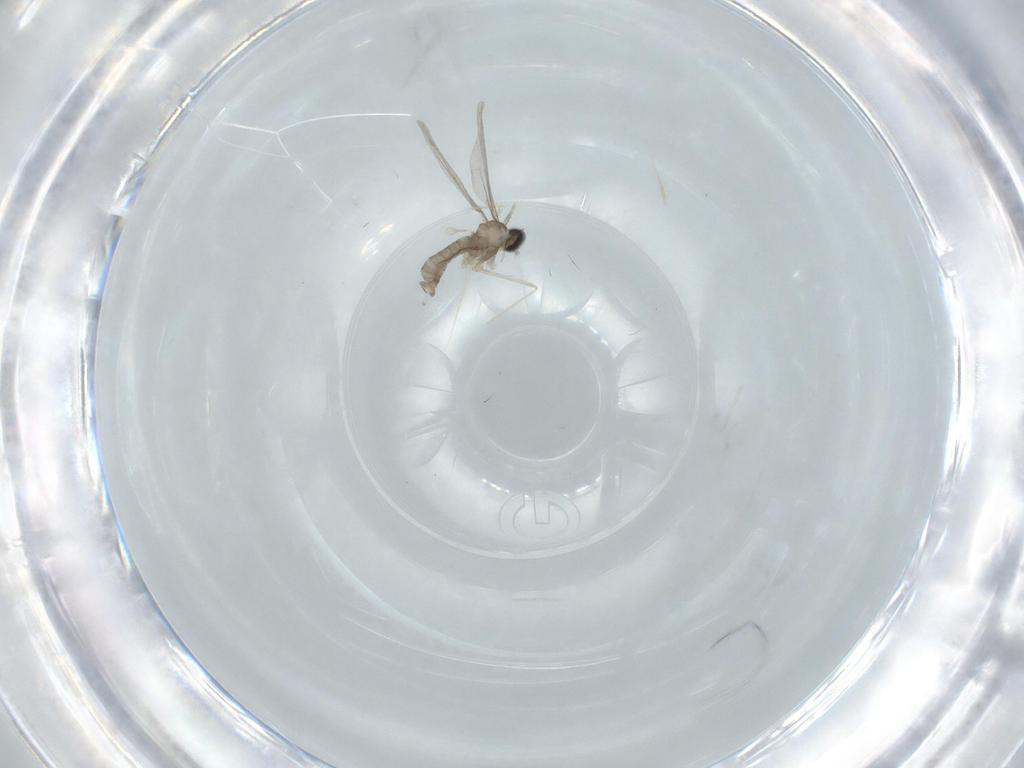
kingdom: Animalia
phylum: Arthropoda
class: Insecta
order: Diptera
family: Cecidomyiidae
